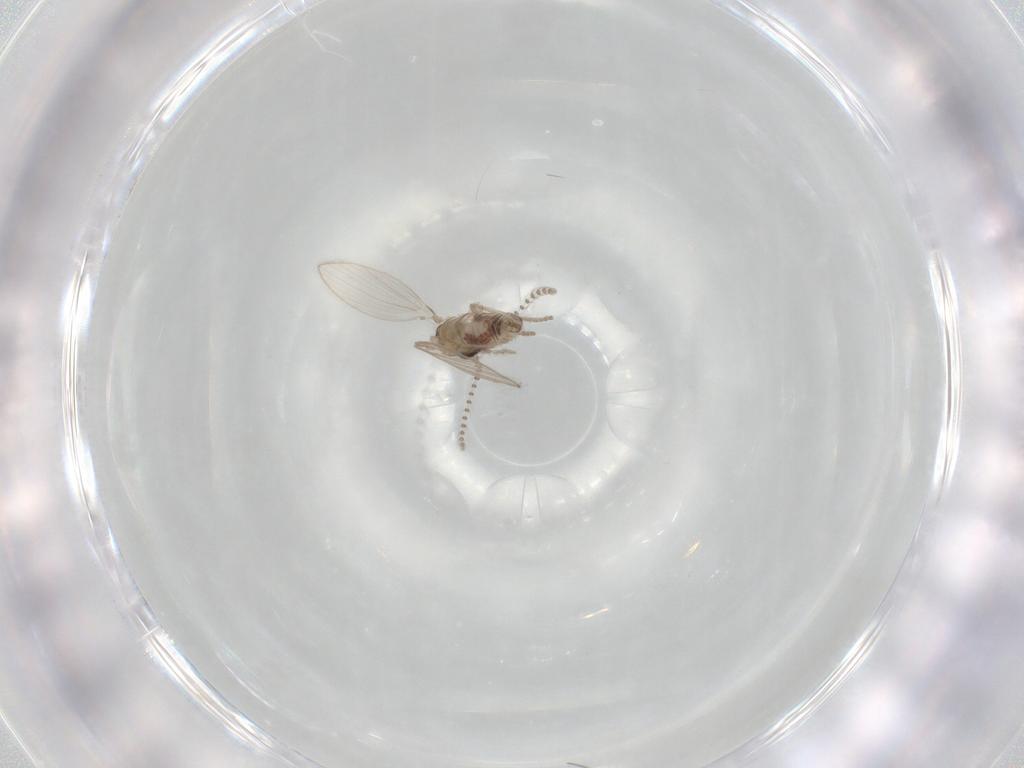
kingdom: Animalia
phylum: Arthropoda
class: Insecta
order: Diptera
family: Psychodidae
